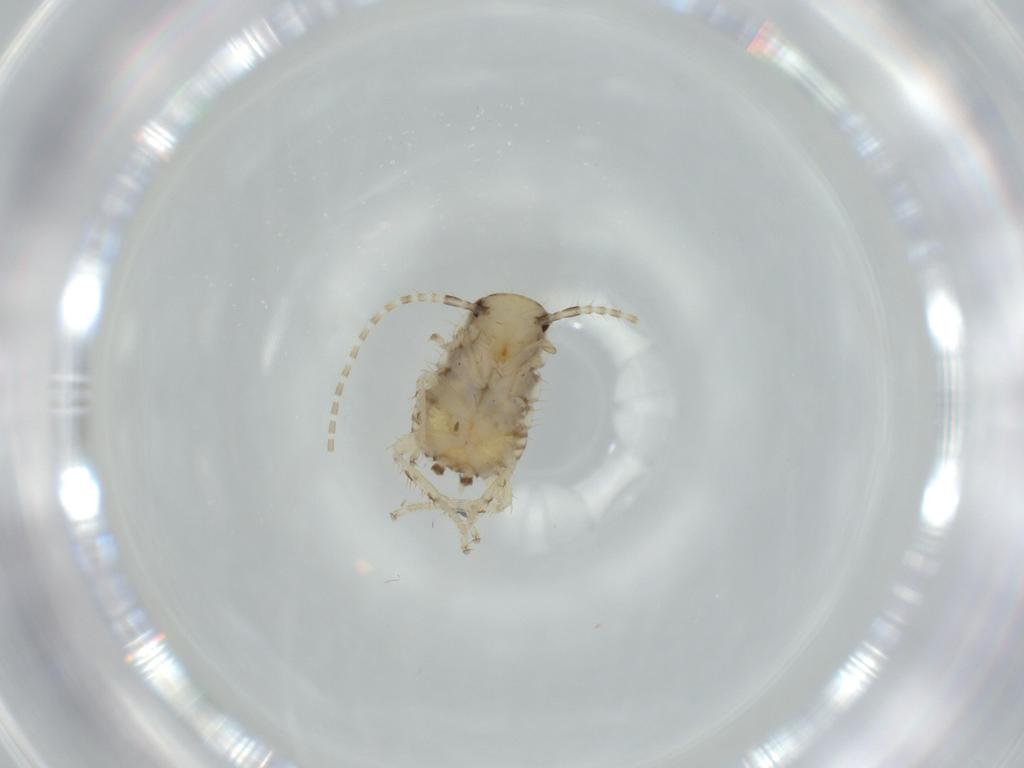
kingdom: Animalia
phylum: Arthropoda
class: Insecta
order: Blattodea
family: Ectobiidae
